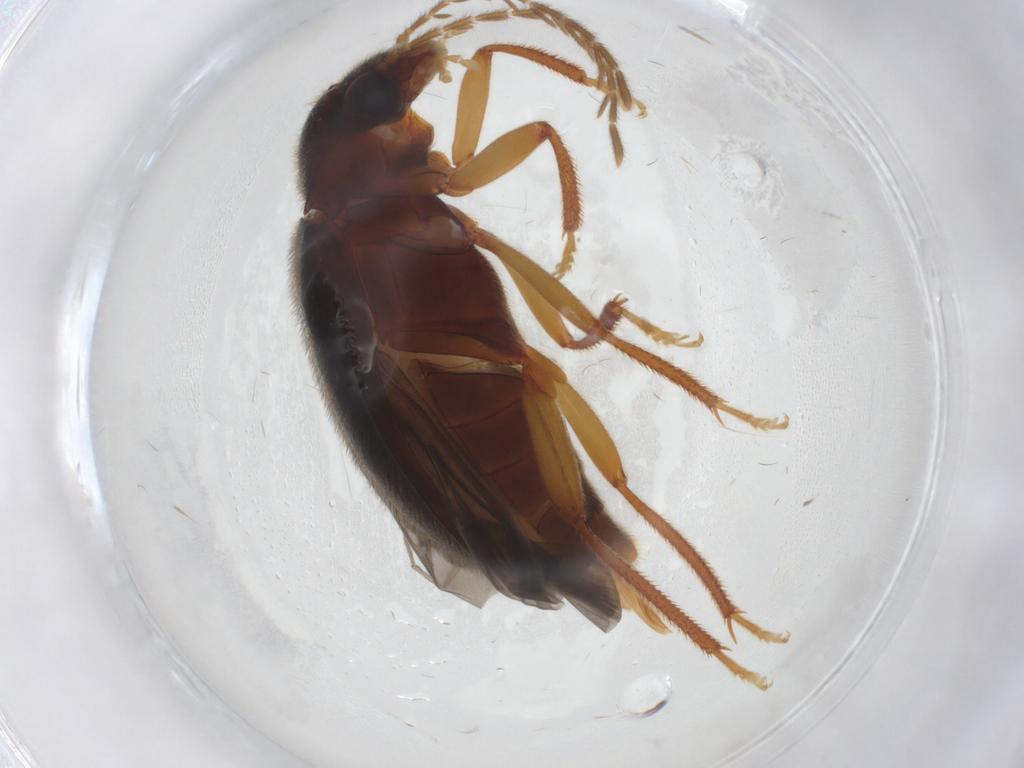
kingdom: Animalia
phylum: Arthropoda
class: Insecta
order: Coleoptera
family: Ptilodactylidae
